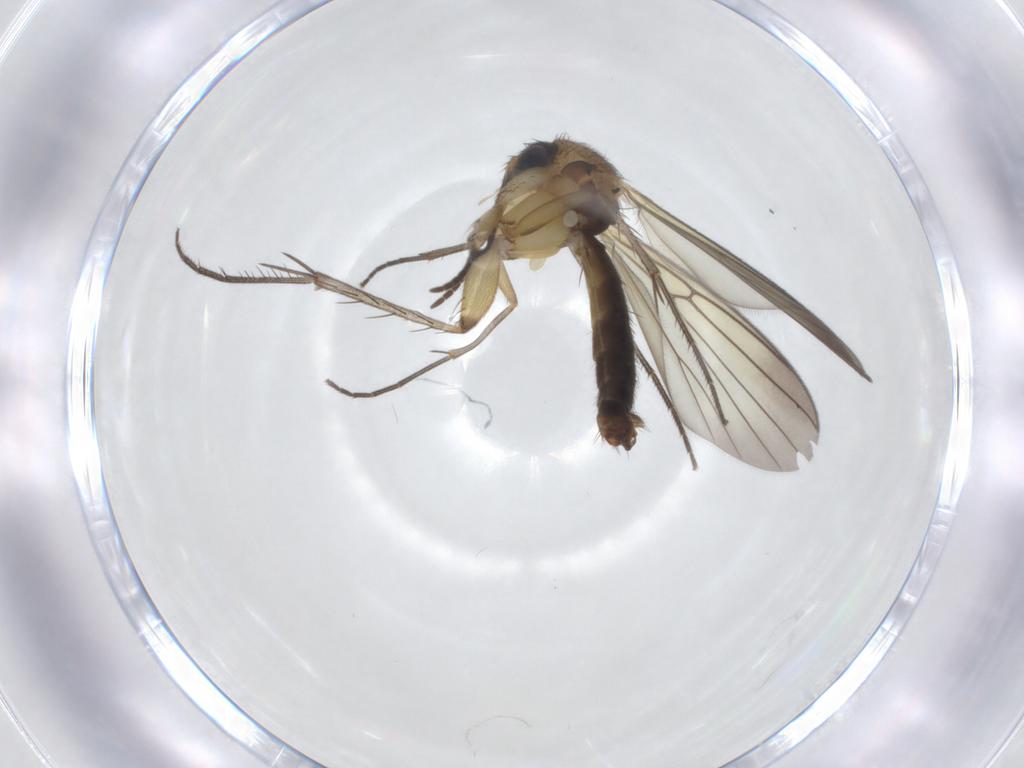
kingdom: Animalia
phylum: Arthropoda
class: Insecta
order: Diptera
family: Mycetophilidae
